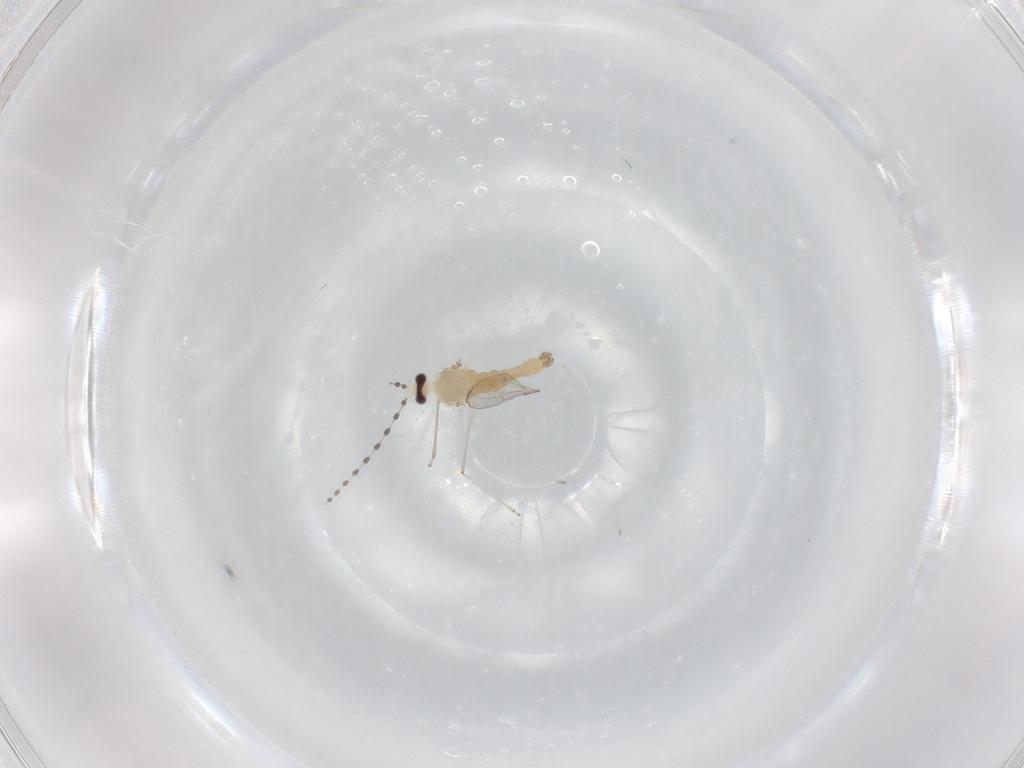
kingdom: Animalia
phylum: Arthropoda
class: Insecta
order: Diptera
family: Cecidomyiidae
